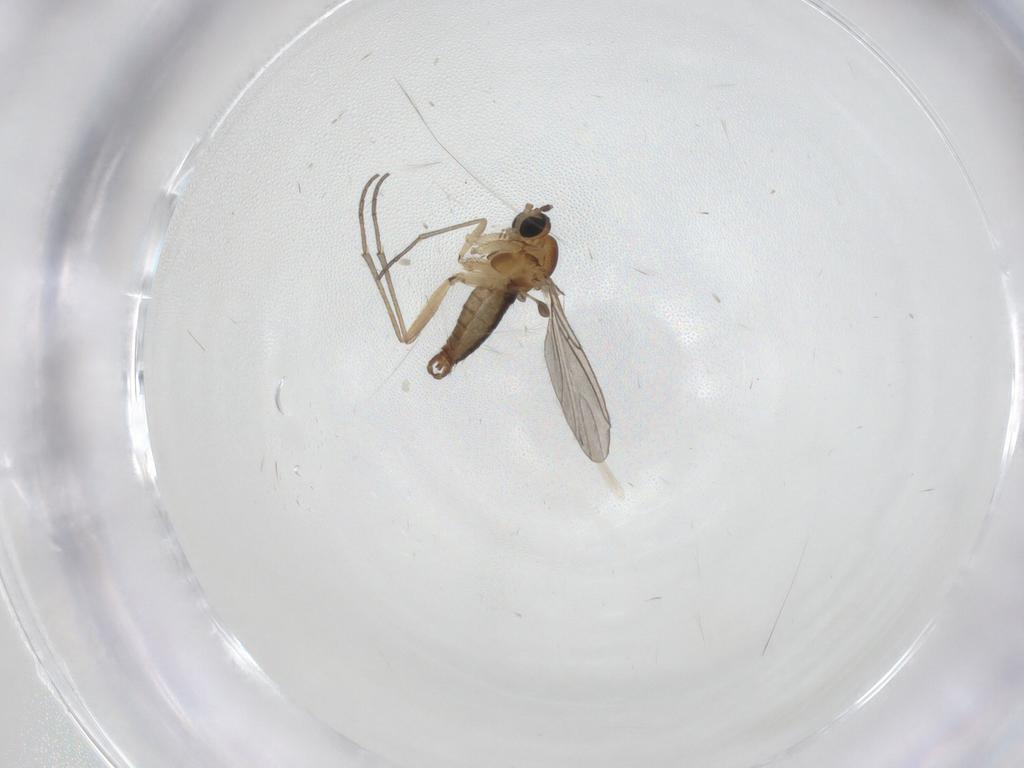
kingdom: Animalia
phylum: Arthropoda
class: Insecta
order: Diptera
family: Sciaridae
